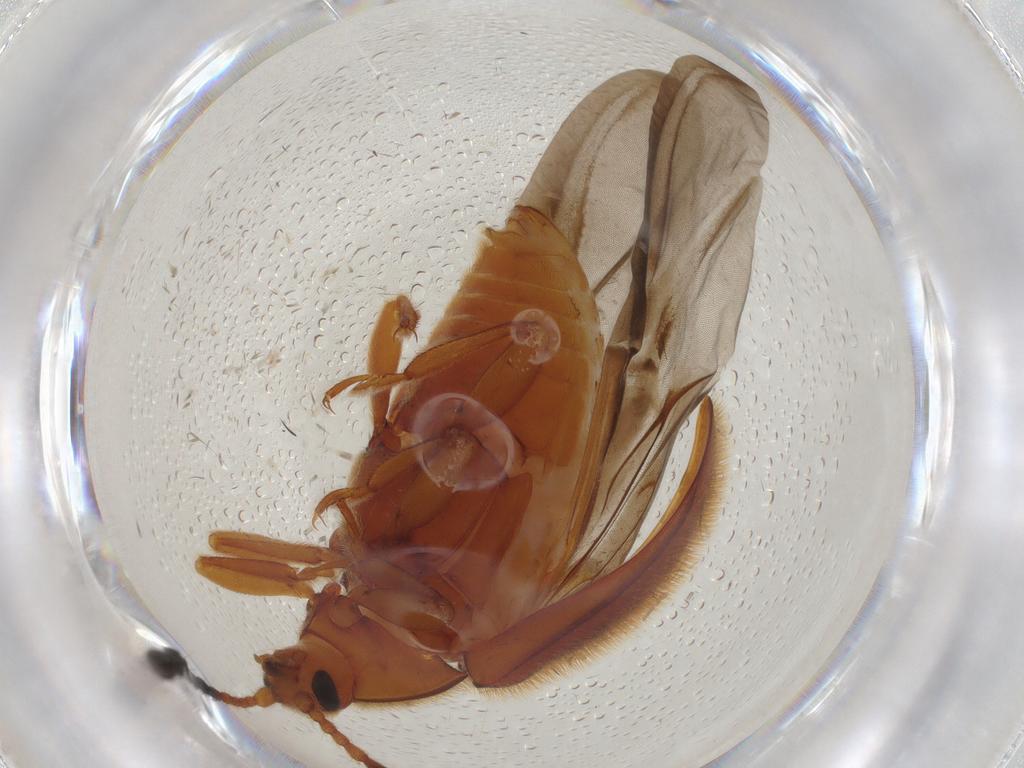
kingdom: Animalia
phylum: Arthropoda
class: Insecta
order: Coleoptera
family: Endomychidae
